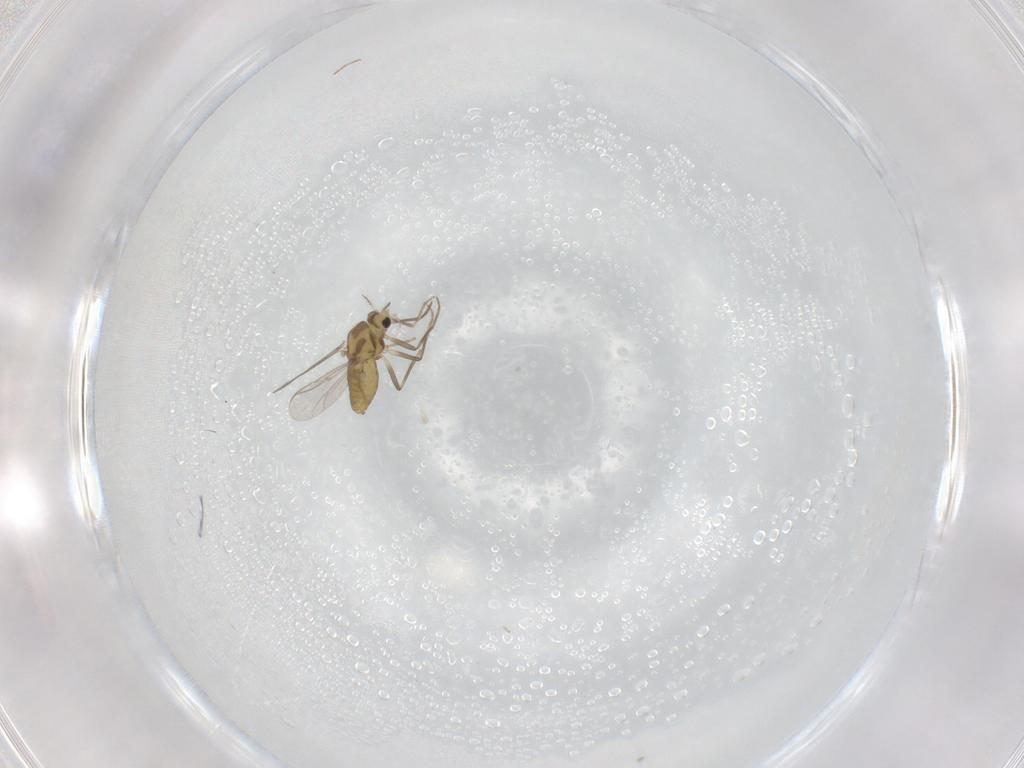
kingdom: Animalia
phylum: Arthropoda
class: Insecta
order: Diptera
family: Chironomidae
